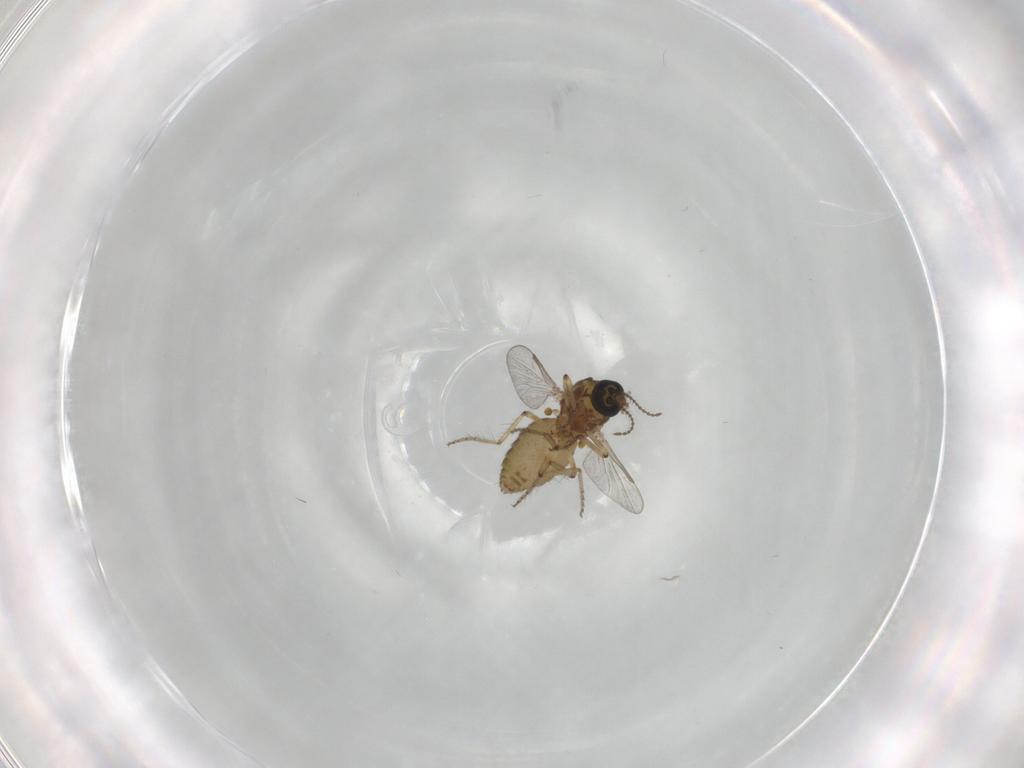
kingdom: Animalia
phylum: Arthropoda
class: Insecta
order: Diptera
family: Ceratopogonidae
